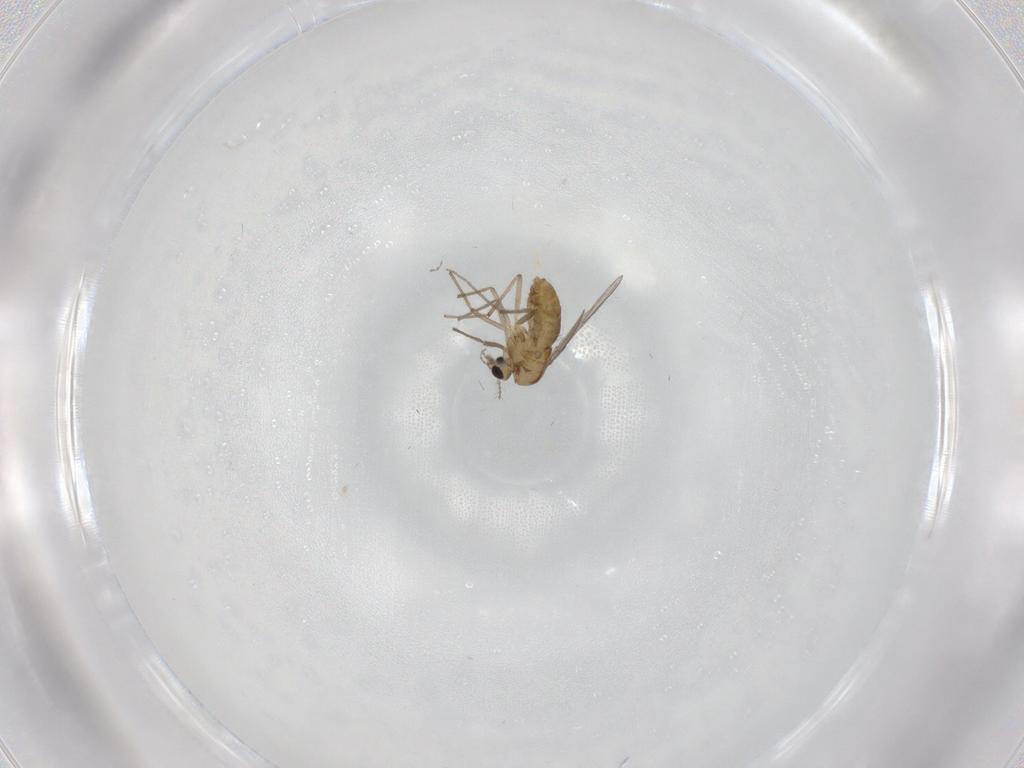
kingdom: Animalia
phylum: Arthropoda
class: Insecta
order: Diptera
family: Chironomidae
